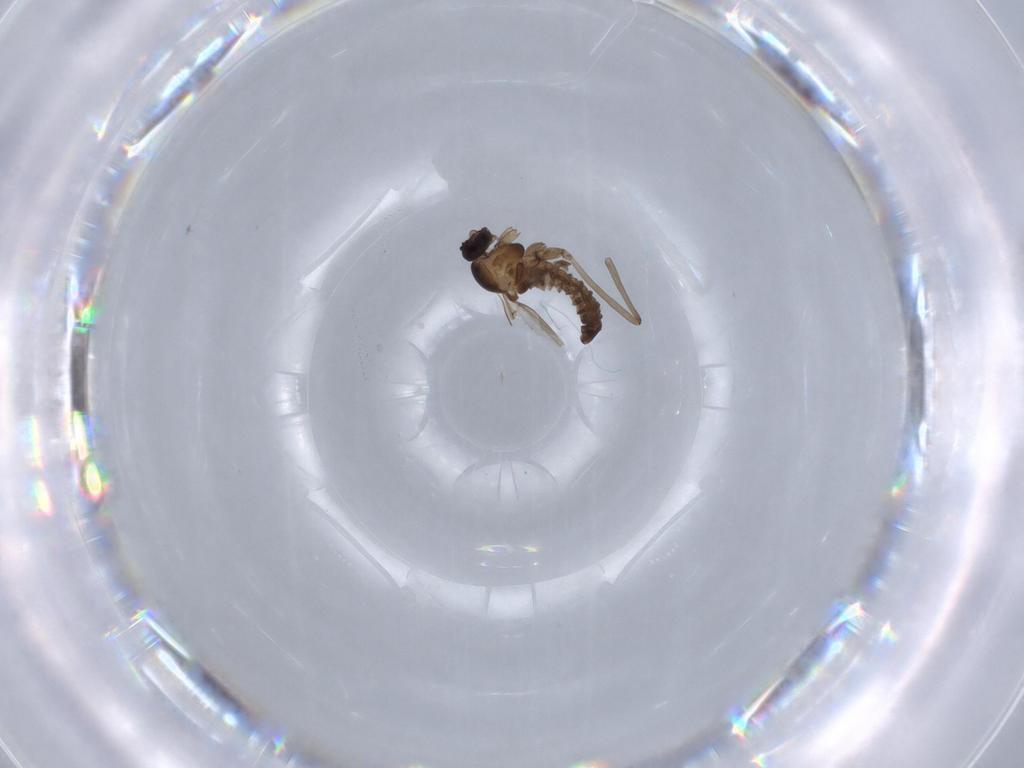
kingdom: Animalia
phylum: Arthropoda
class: Insecta
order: Diptera
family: Cecidomyiidae
